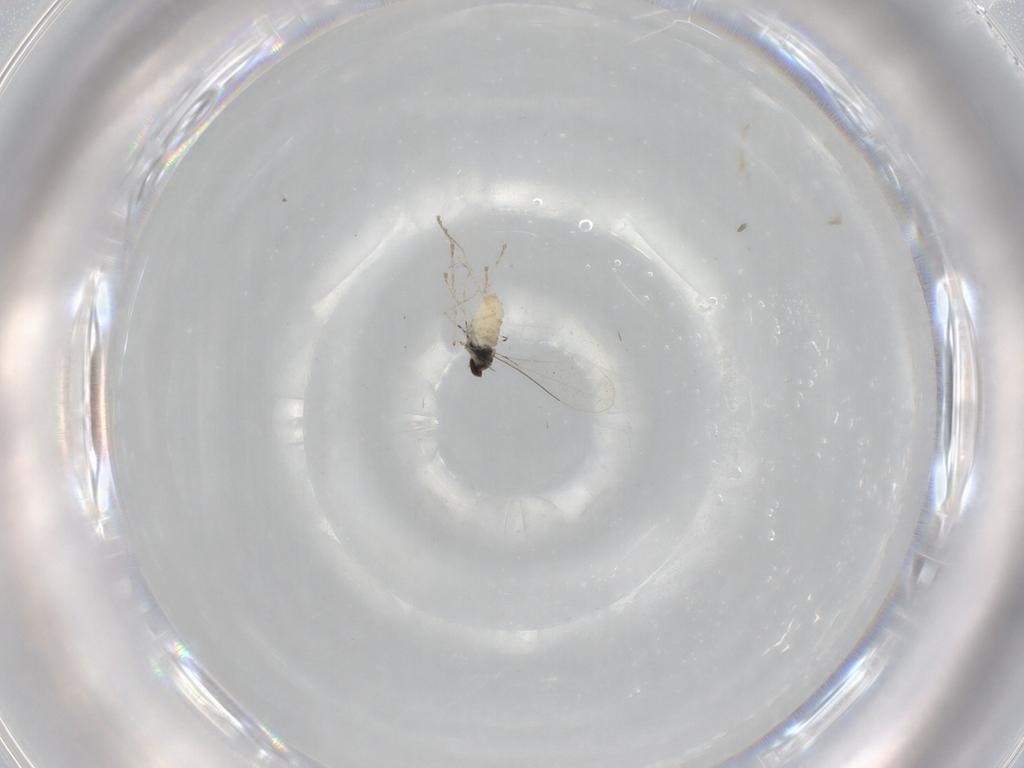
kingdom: Animalia
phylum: Arthropoda
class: Insecta
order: Diptera
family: Cecidomyiidae
